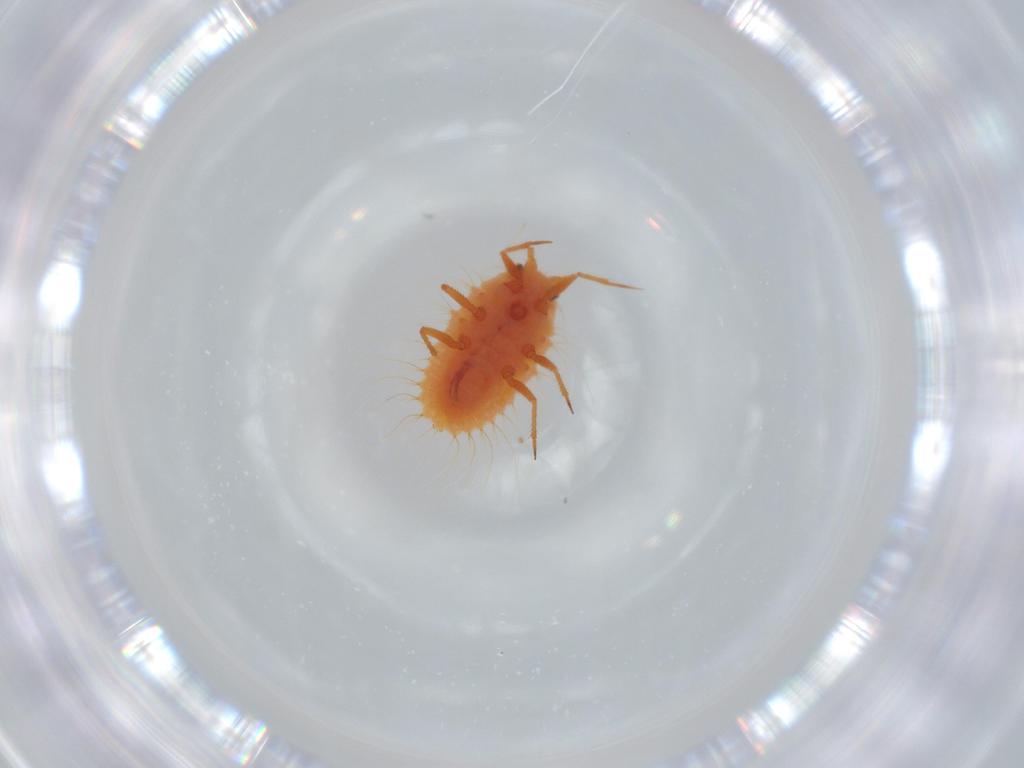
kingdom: Animalia
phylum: Arthropoda
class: Insecta
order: Hemiptera
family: Coccoidea_incertae_sedis
